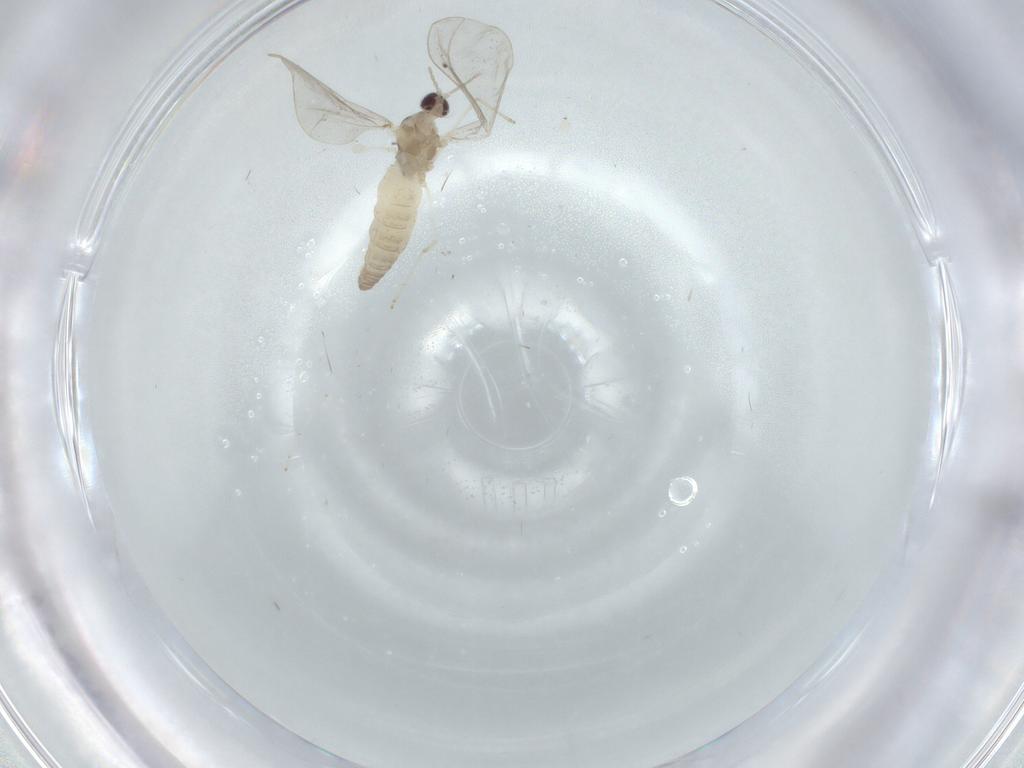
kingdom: Animalia
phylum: Arthropoda
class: Insecta
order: Diptera
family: Cecidomyiidae
